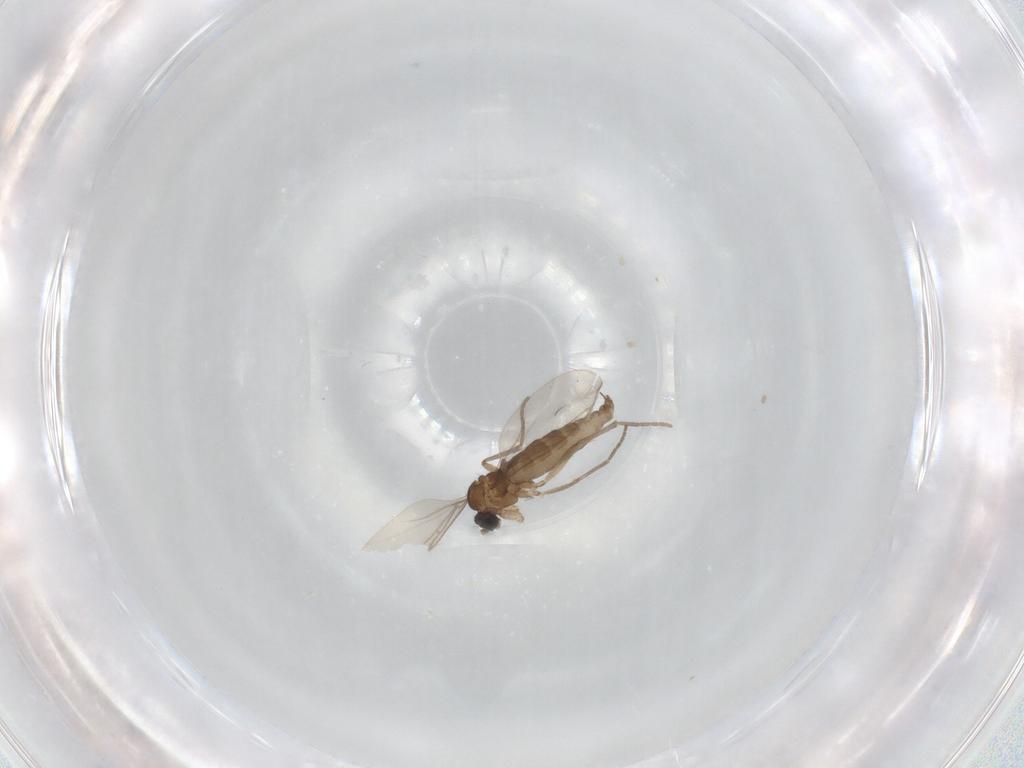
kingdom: Animalia
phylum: Arthropoda
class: Insecta
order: Diptera
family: Sciaridae
